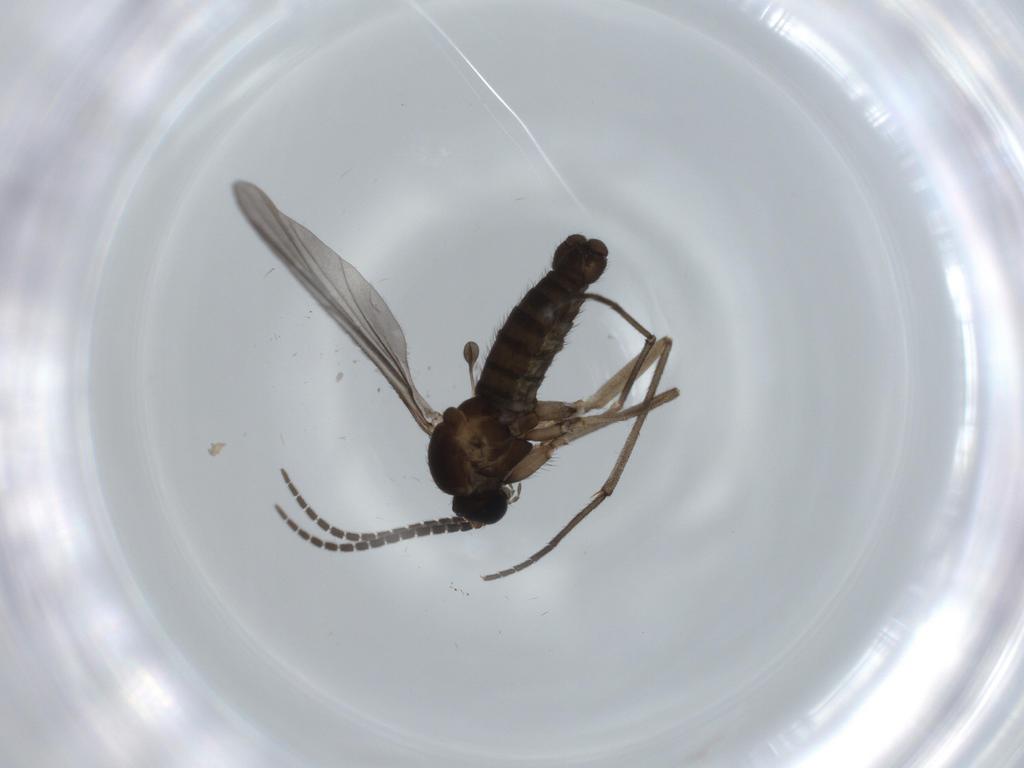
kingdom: Animalia
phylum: Arthropoda
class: Insecta
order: Diptera
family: Sciaridae
